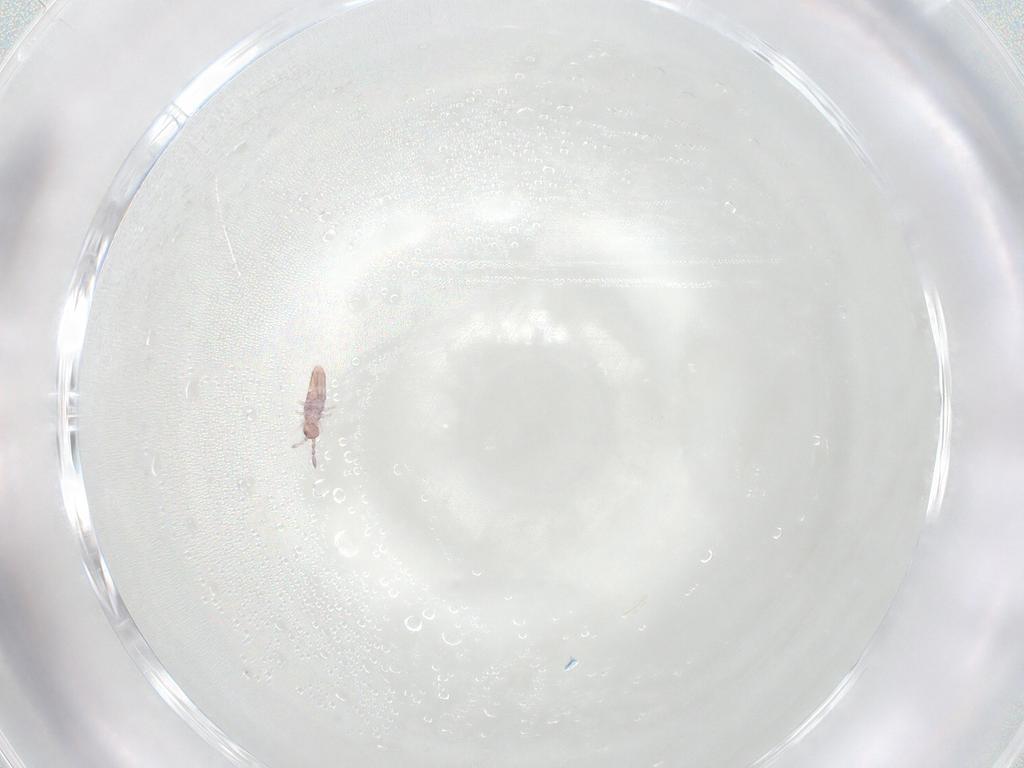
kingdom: Animalia
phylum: Arthropoda
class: Collembola
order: Entomobryomorpha
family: Entomobryidae
